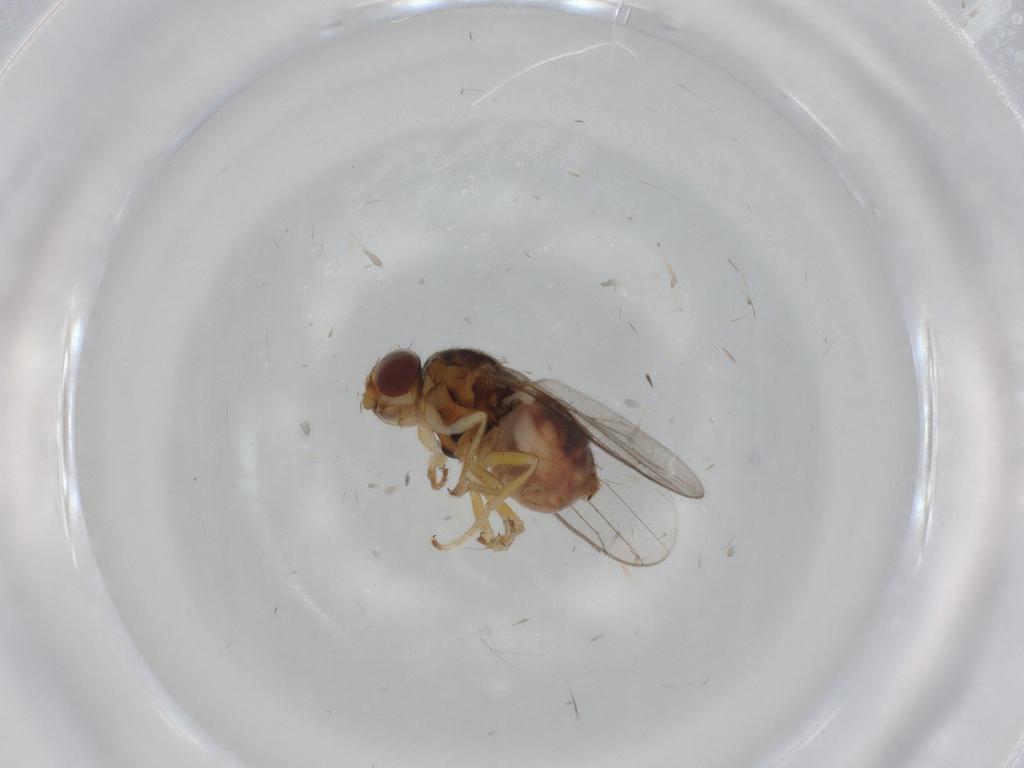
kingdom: Animalia
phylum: Arthropoda
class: Insecta
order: Diptera
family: Chloropidae
